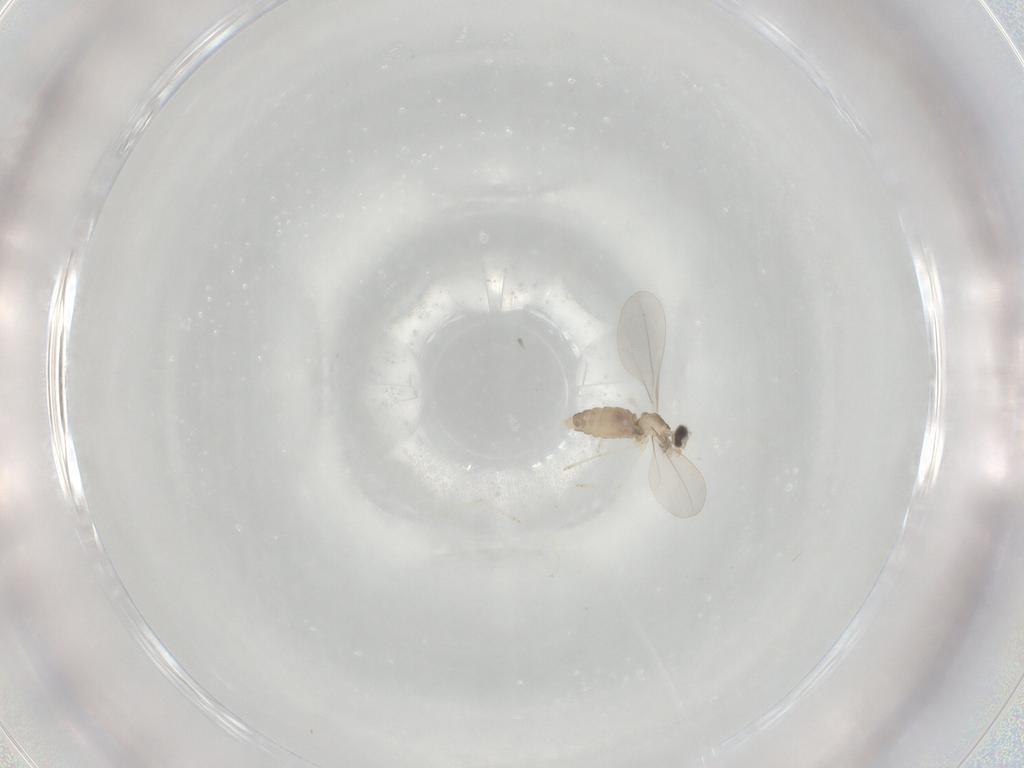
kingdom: Animalia
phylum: Arthropoda
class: Insecta
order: Diptera
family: Cecidomyiidae
